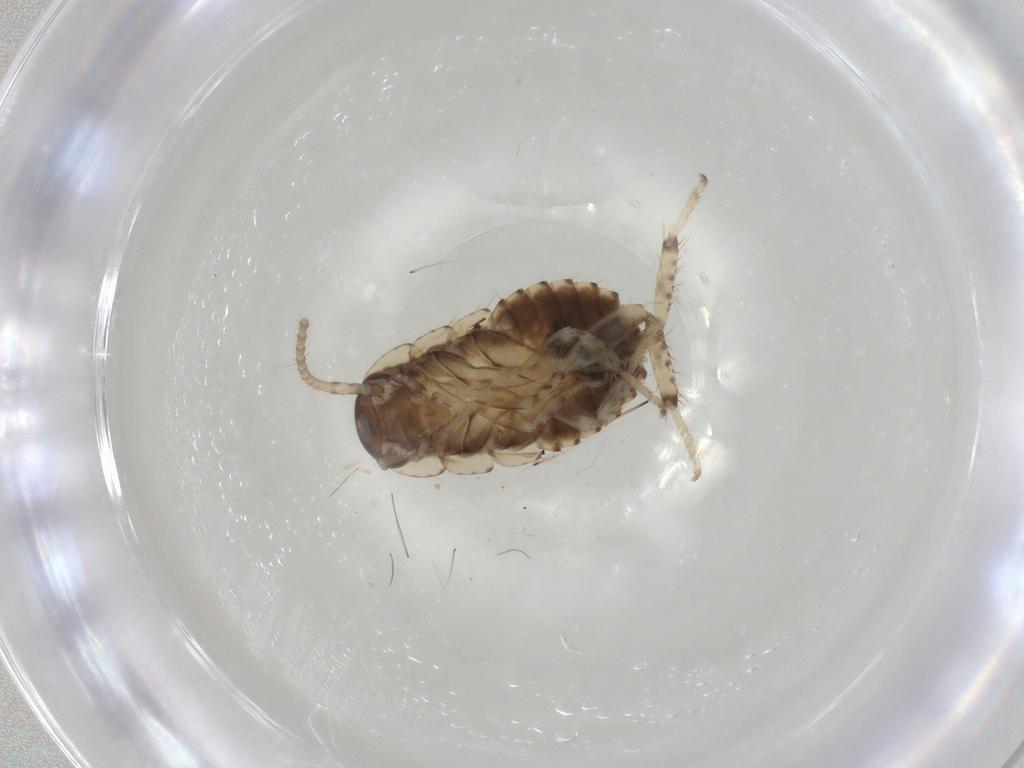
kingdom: Animalia
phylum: Arthropoda
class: Insecta
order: Blattodea
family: Blaberidae
